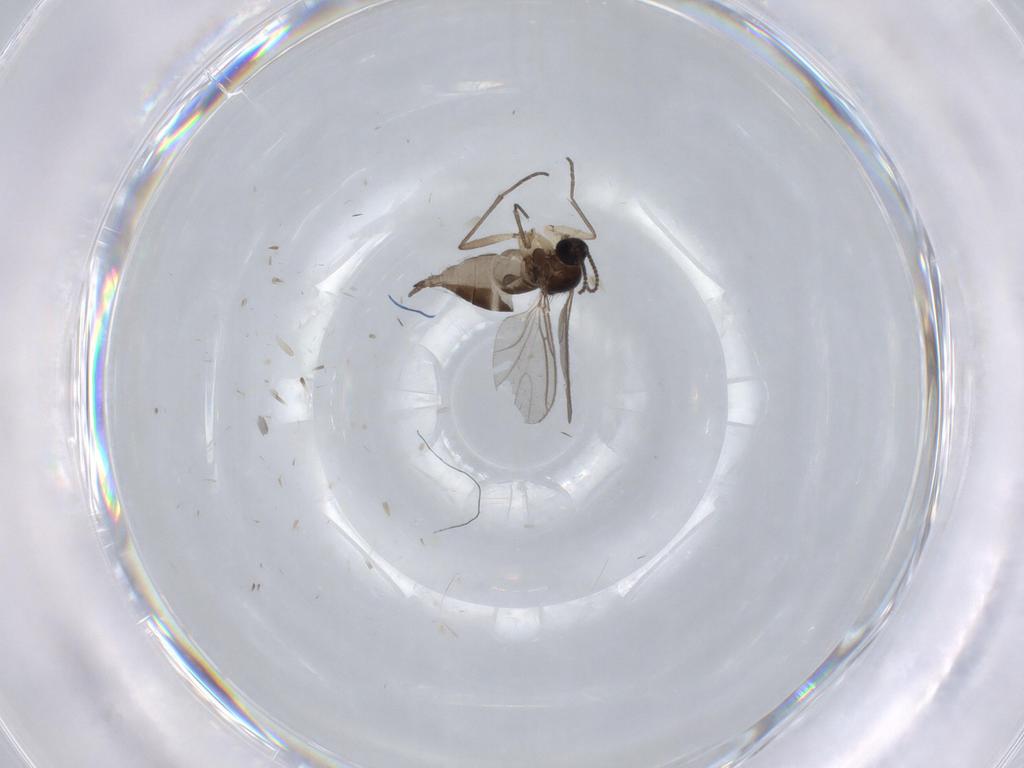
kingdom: Animalia
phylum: Arthropoda
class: Insecta
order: Diptera
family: Sciaridae
